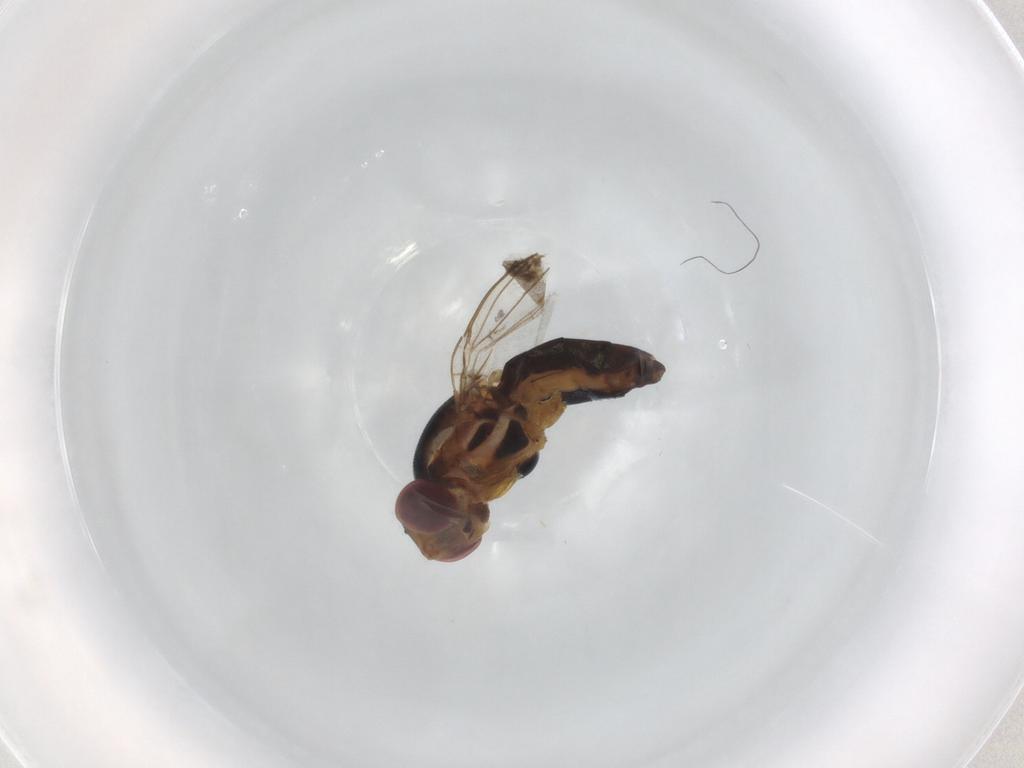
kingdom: Animalia
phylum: Arthropoda
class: Insecta
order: Diptera
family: Chloropidae
